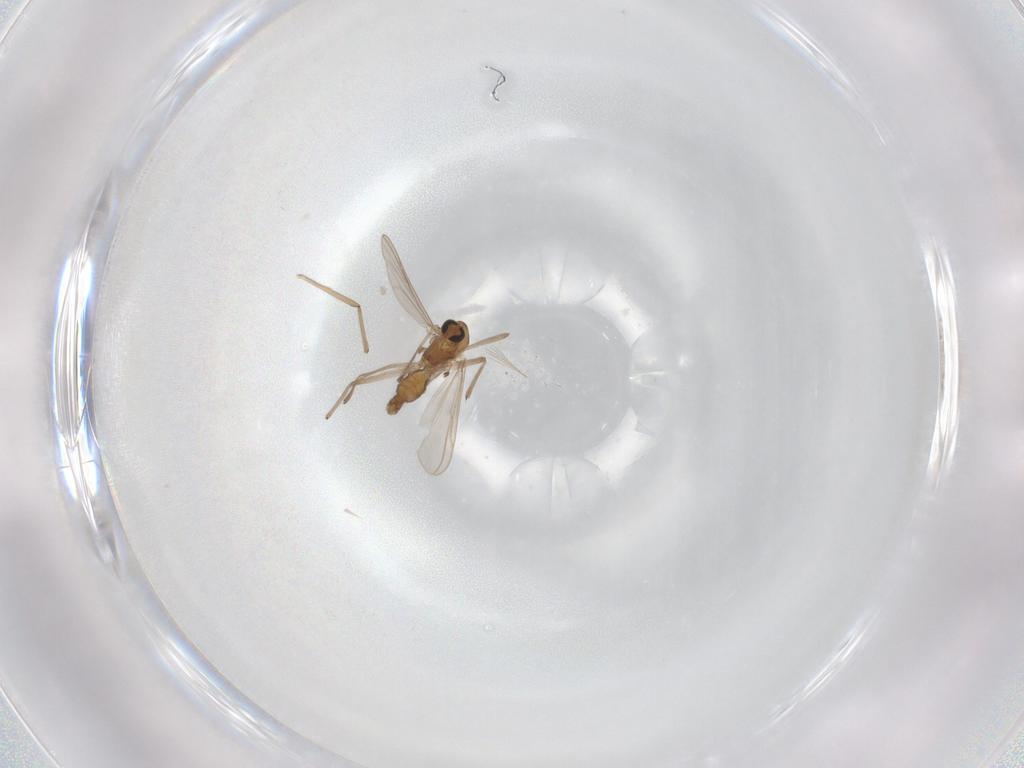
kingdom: Animalia
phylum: Arthropoda
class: Insecta
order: Diptera
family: Chironomidae
